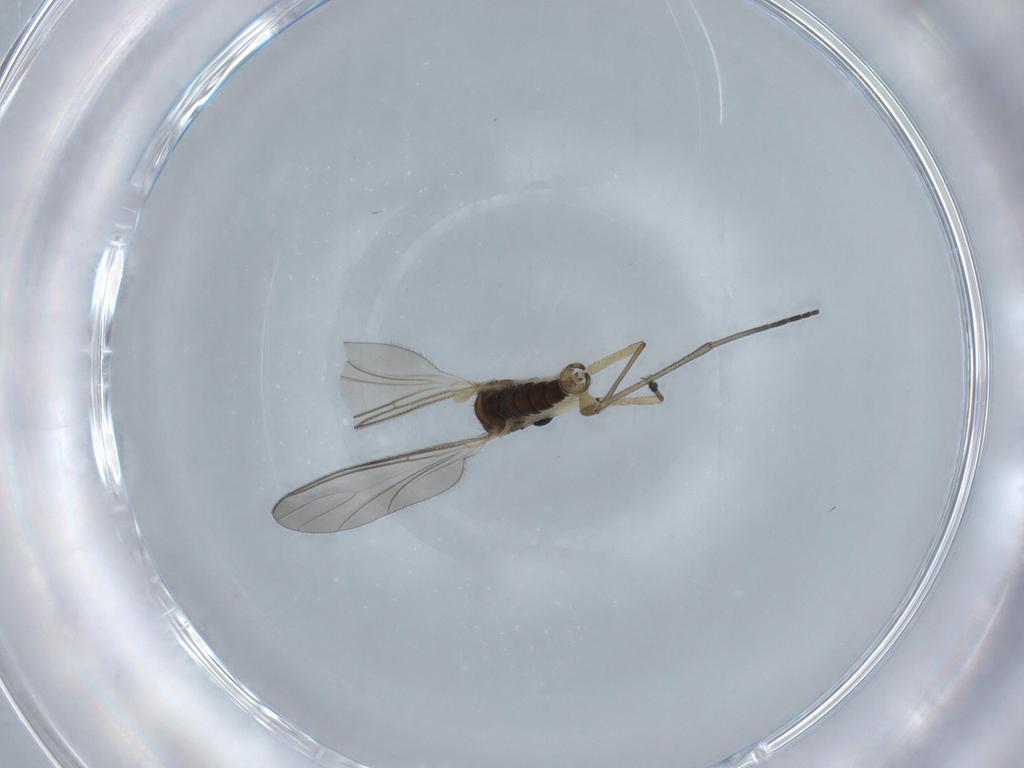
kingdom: Animalia
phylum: Arthropoda
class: Insecta
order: Diptera
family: Sciaridae
